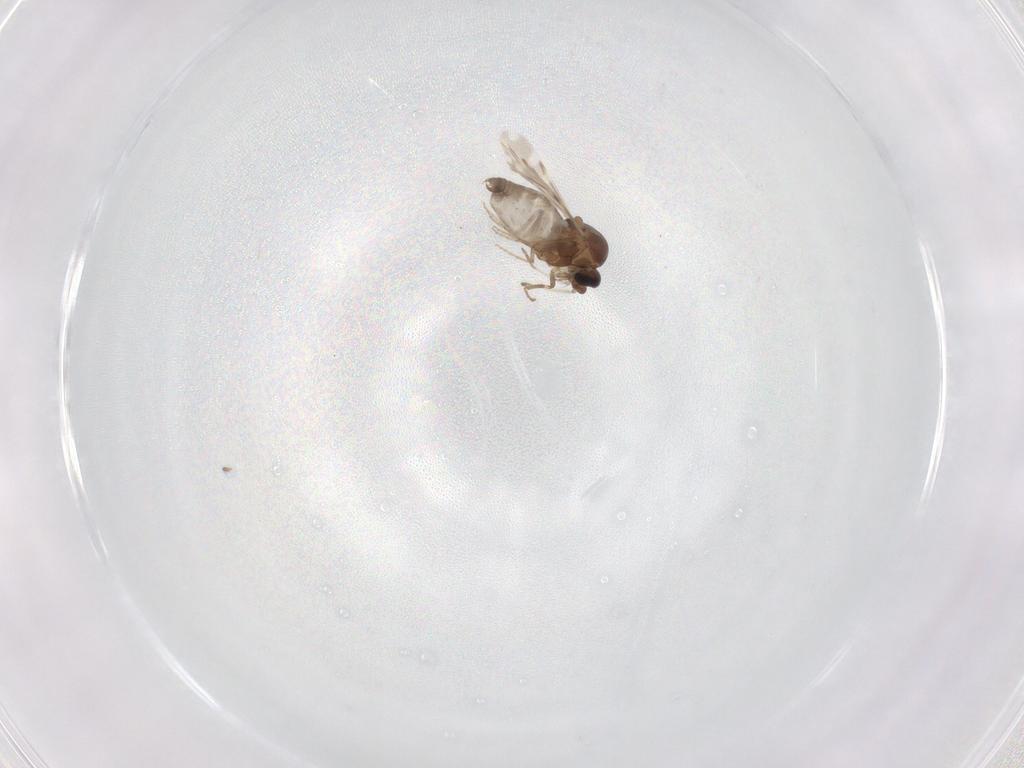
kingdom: Animalia
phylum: Arthropoda
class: Insecta
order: Diptera
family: Ceratopogonidae
